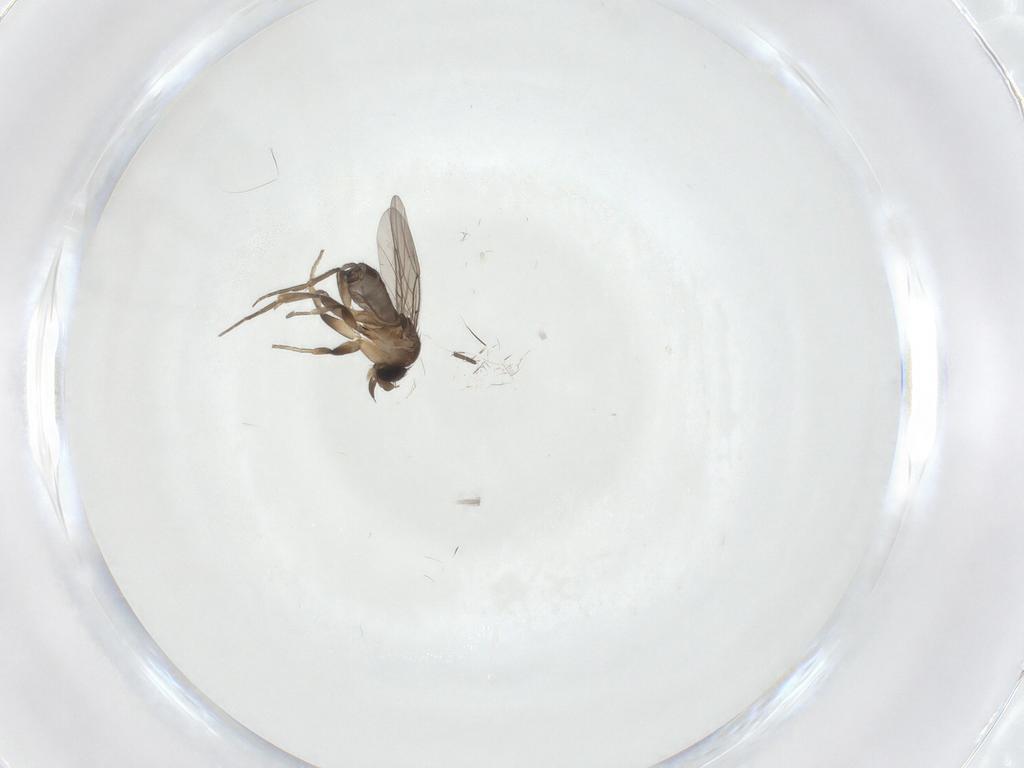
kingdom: Animalia
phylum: Arthropoda
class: Insecta
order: Diptera
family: Phoridae
